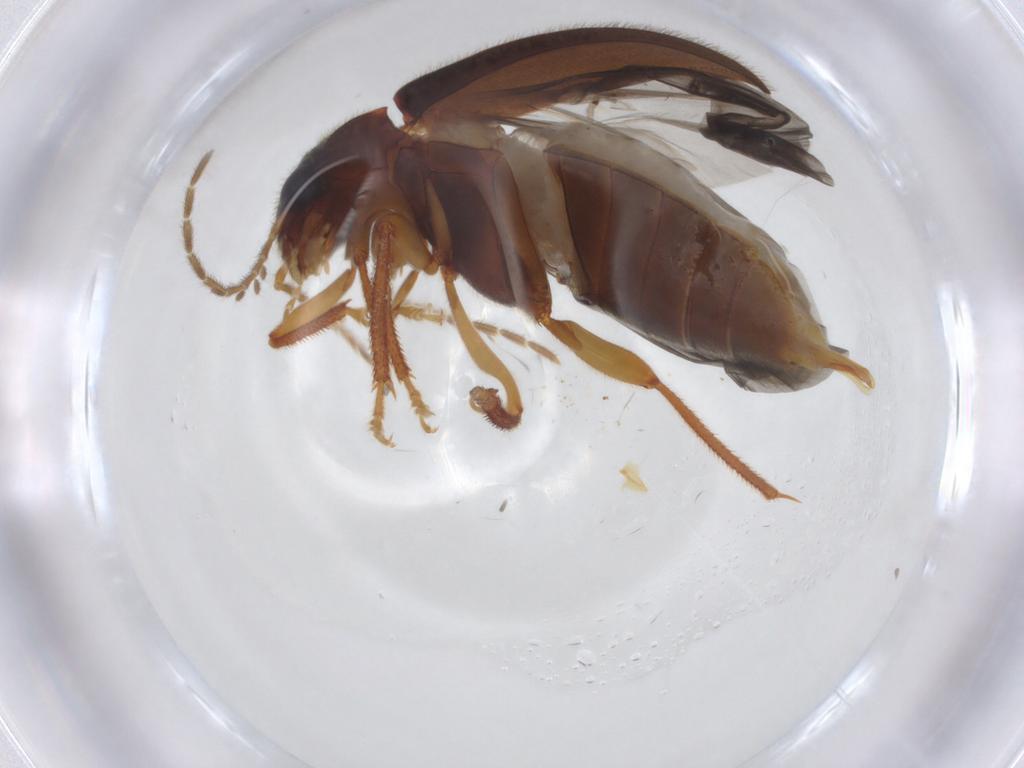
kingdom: Animalia
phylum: Arthropoda
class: Insecta
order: Coleoptera
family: Ptilodactylidae
